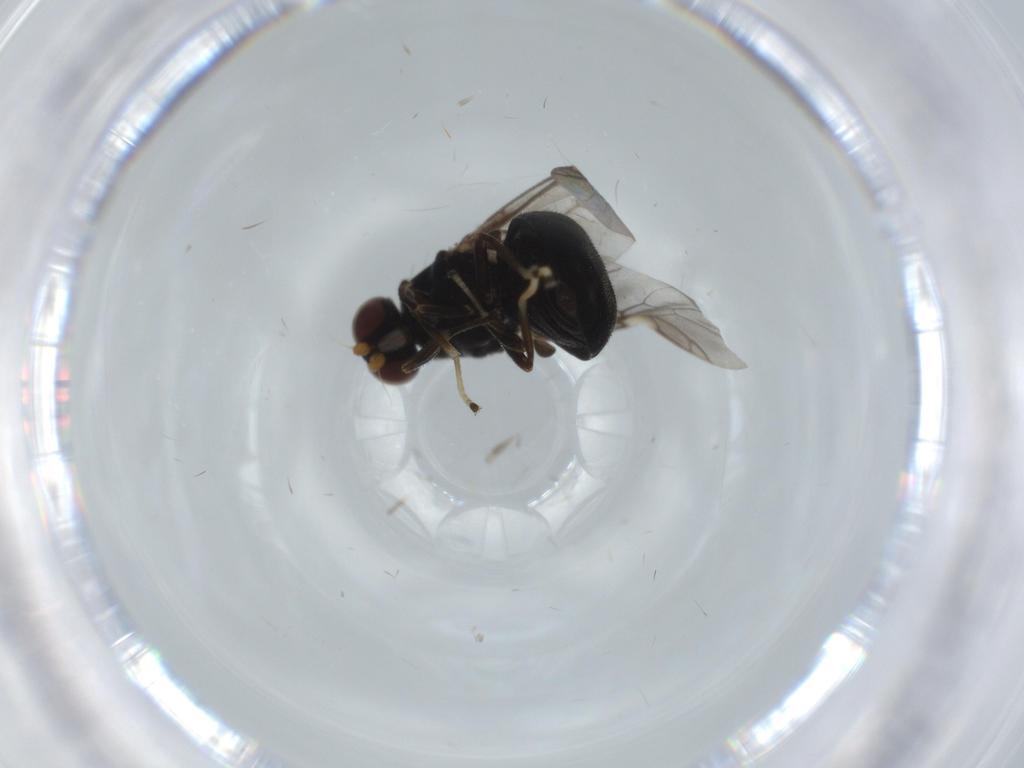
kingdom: Animalia
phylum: Arthropoda
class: Insecta
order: Diptera
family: Stratiomyidae
